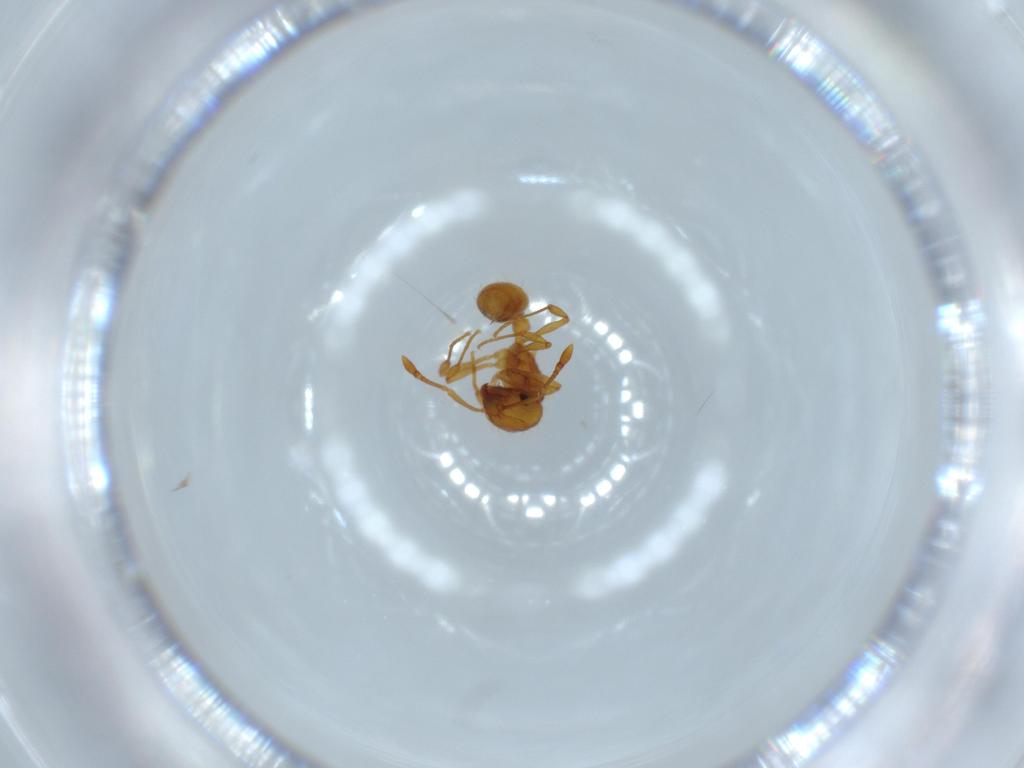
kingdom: Animalia
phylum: Arthropoda
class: Insecta
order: Hymenoptera
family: Formicidae
